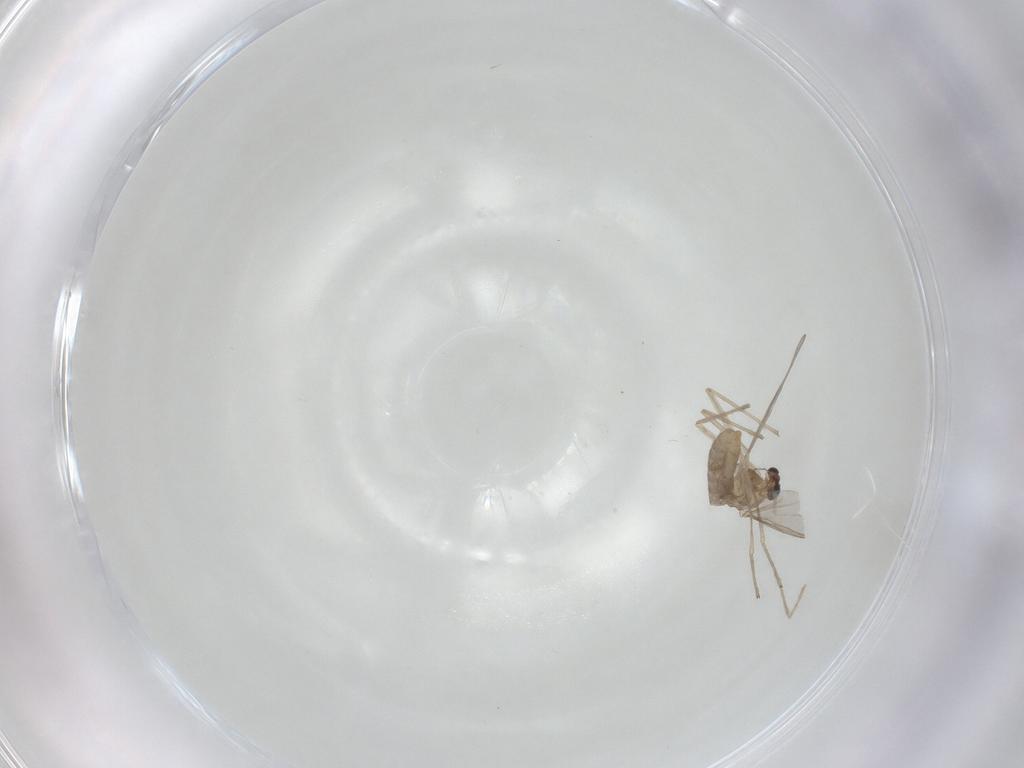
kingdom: Animalia
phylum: Arthropoda
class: Insecta
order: Diptera
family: Chironomidae
